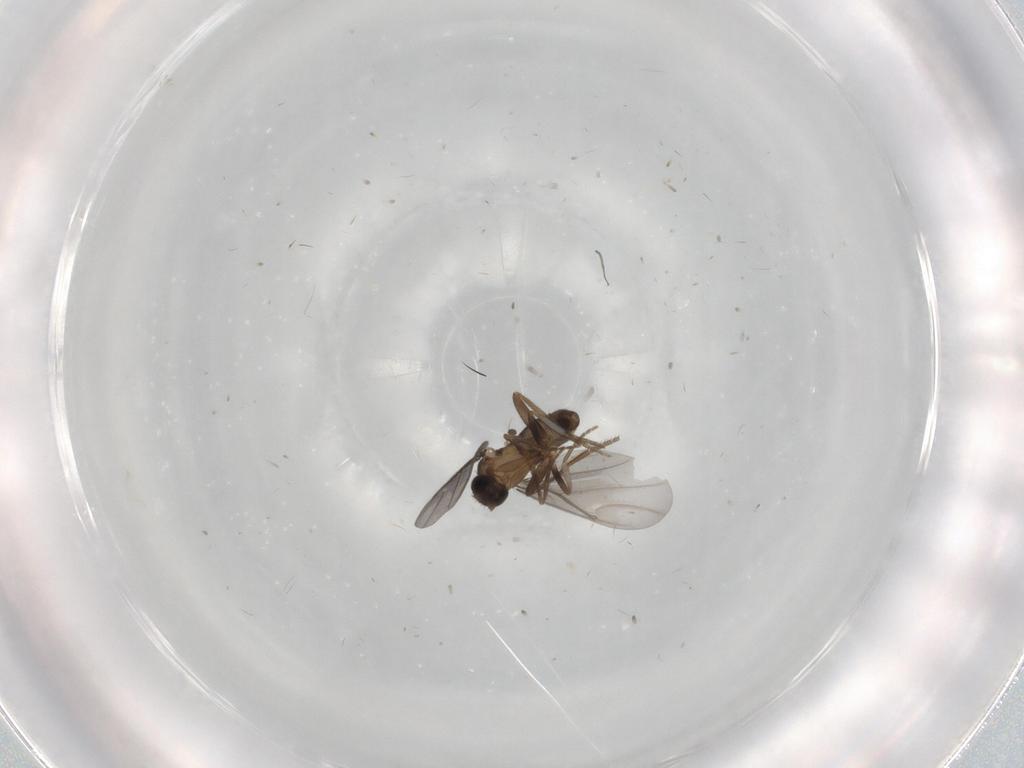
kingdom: Animalia
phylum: Arthropoda
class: Insecta
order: Diptera
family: Phoridae
